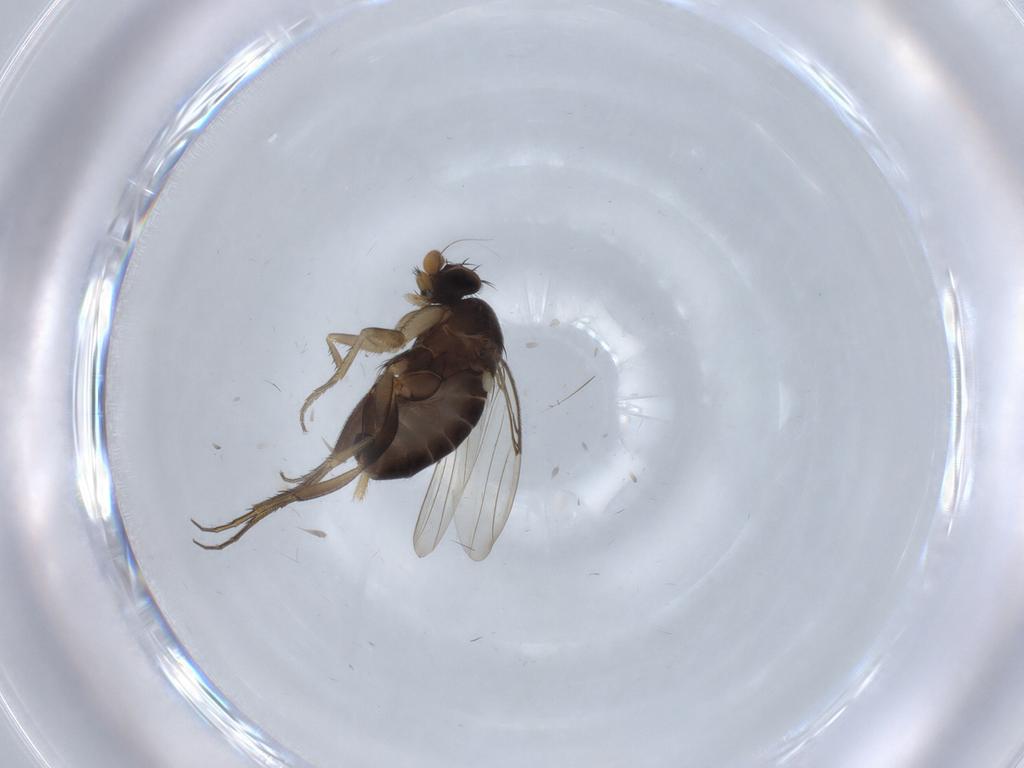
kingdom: Animalia
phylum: Arthropoda
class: Insecta
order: Diptera
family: Phoridae
